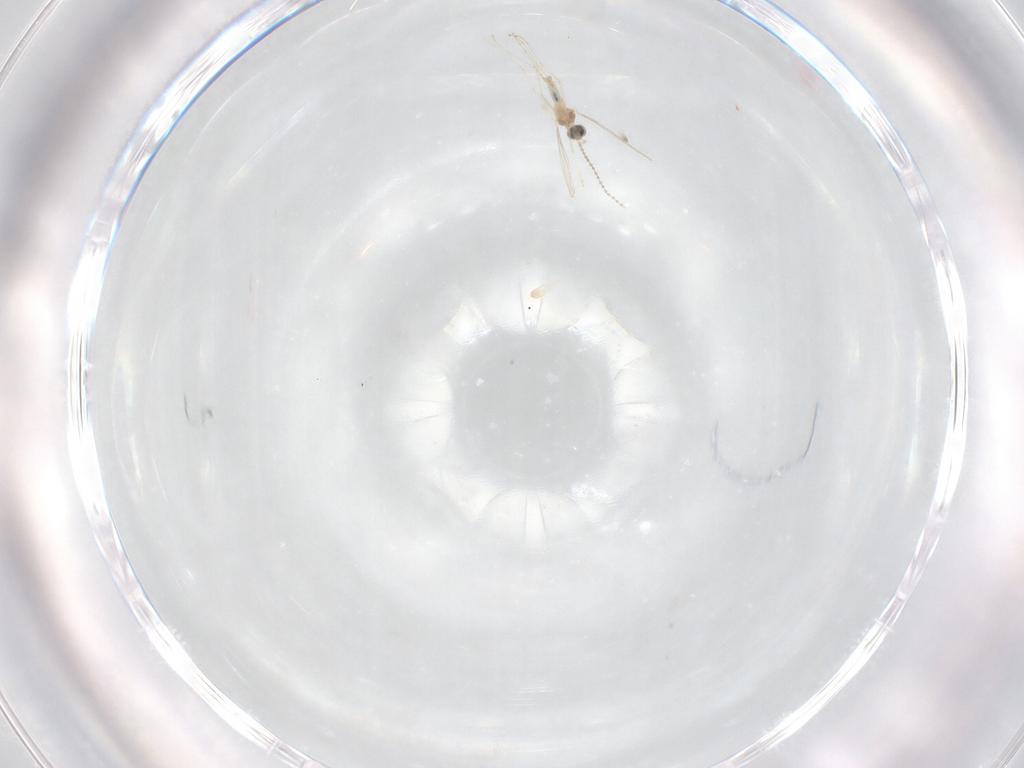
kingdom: Animalia
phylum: Arthropoda
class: Insecta
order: Diptera
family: Cecidomyiidae
